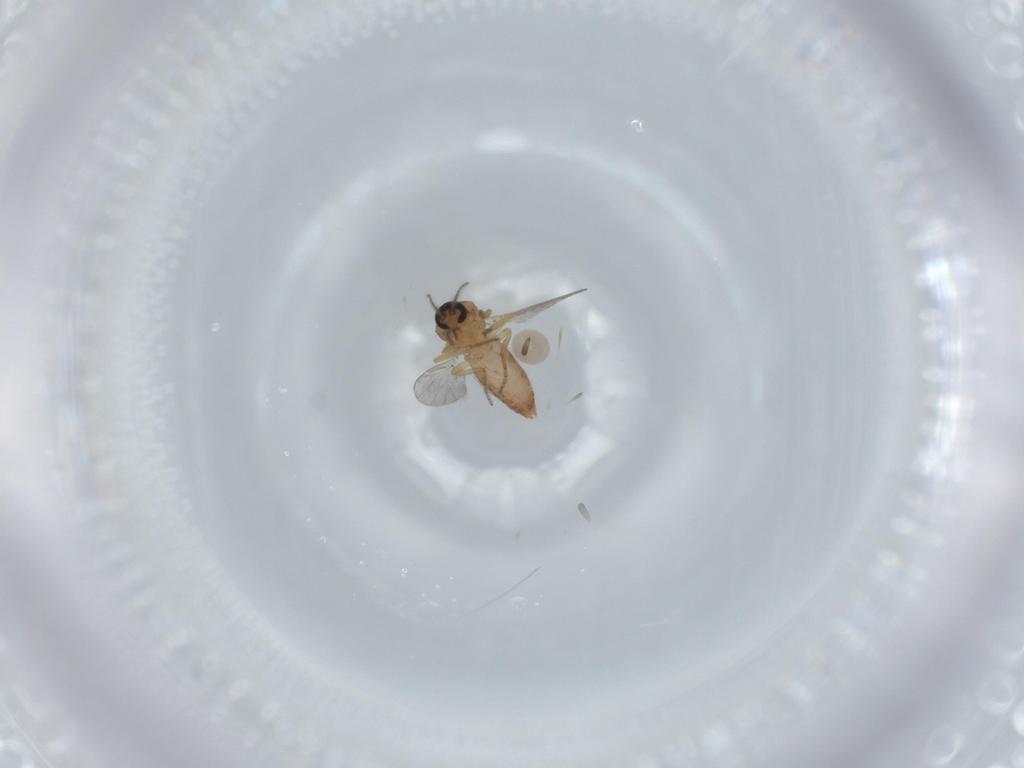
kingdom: Animalia
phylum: Arthropoda
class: Insecta
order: Diptera
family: Ceratopogonidae
